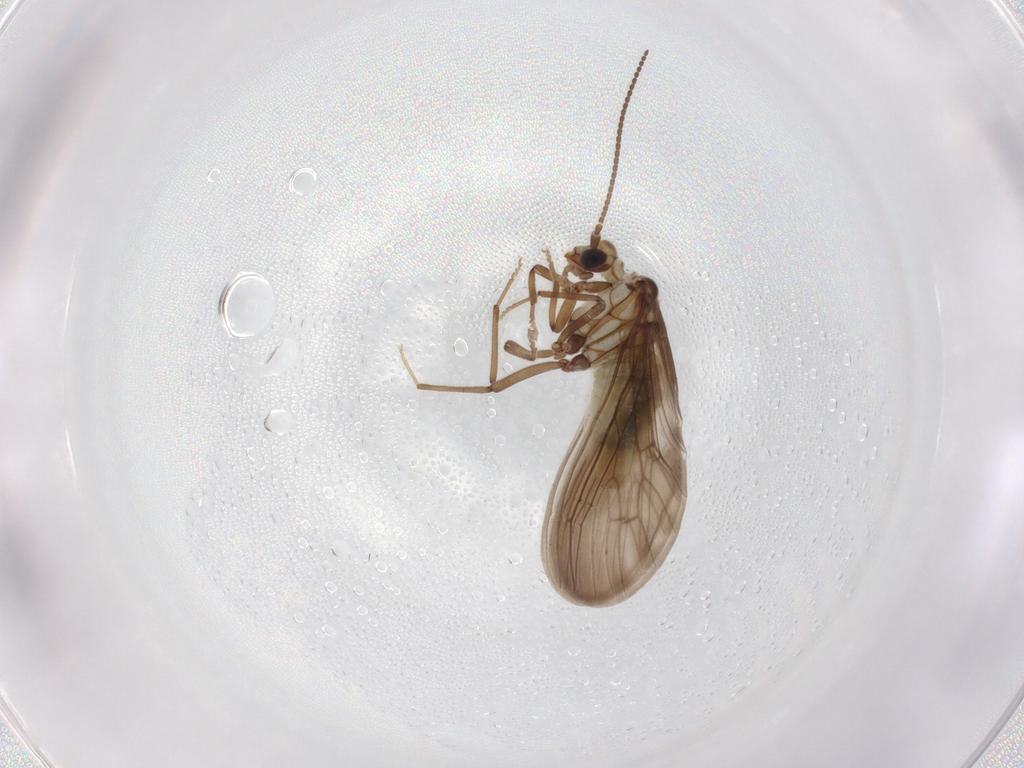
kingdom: Animalia
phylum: Arthropoda
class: Insecta
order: Neuroptera
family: Coniopterygidae
